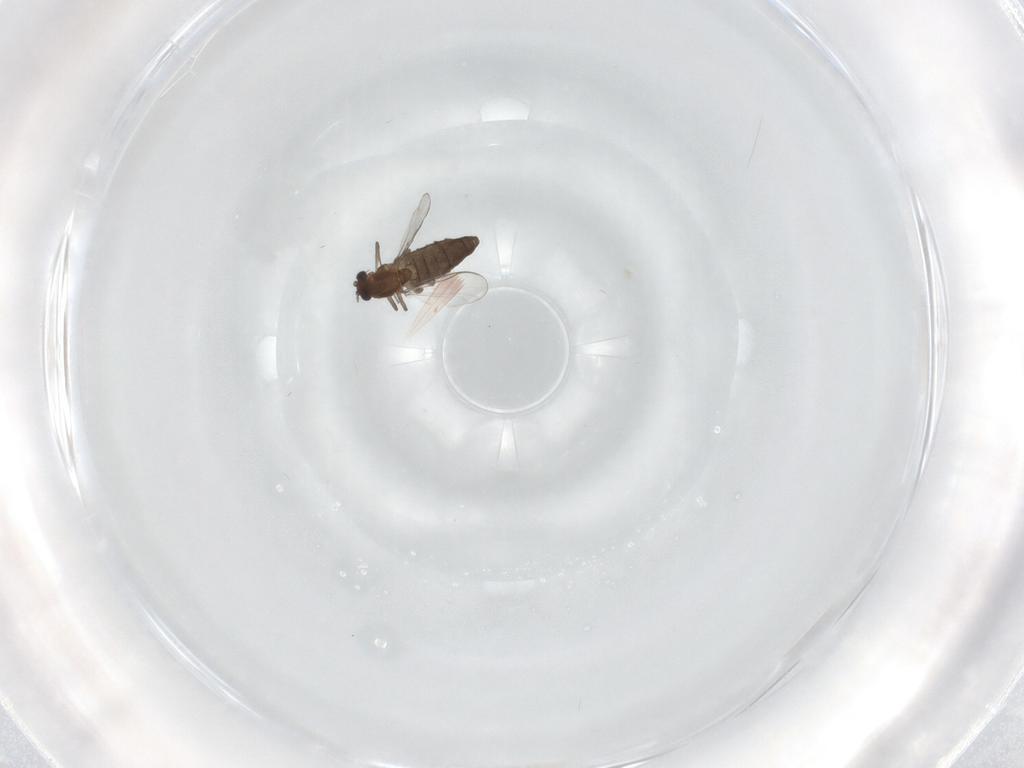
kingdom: Animalia
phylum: Arthropoda
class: Insecta
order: Diptera
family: Chironomidae
